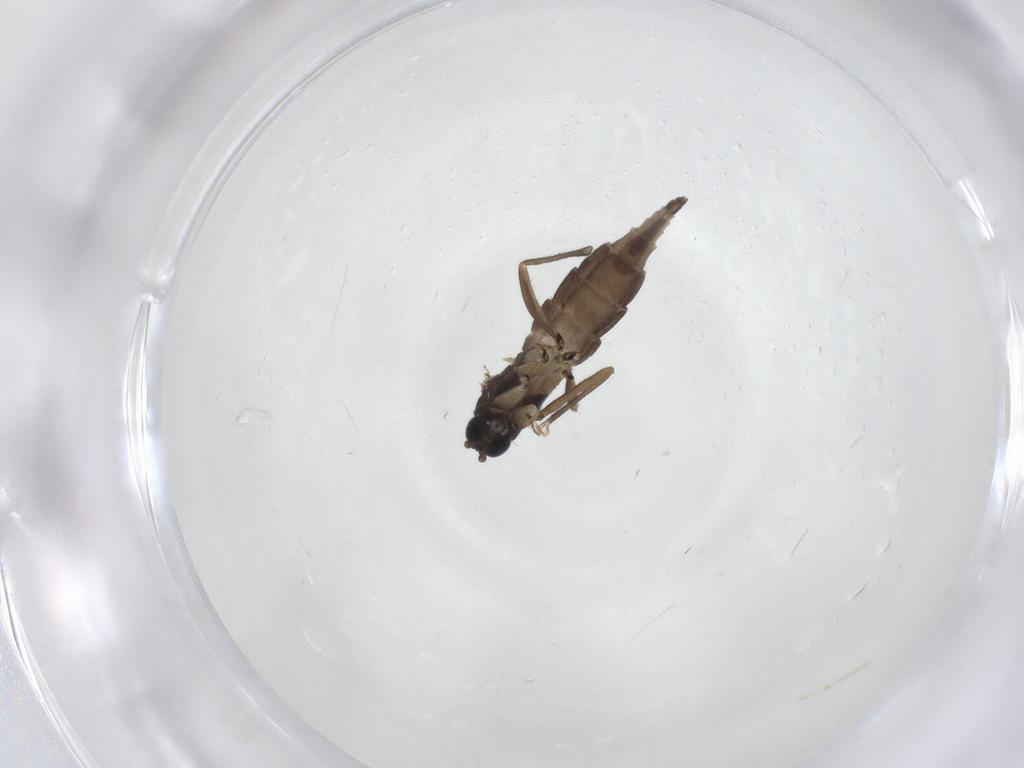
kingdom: Animalia
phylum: Arthropoda
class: Insecta
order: Diptera
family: Sciaridae
